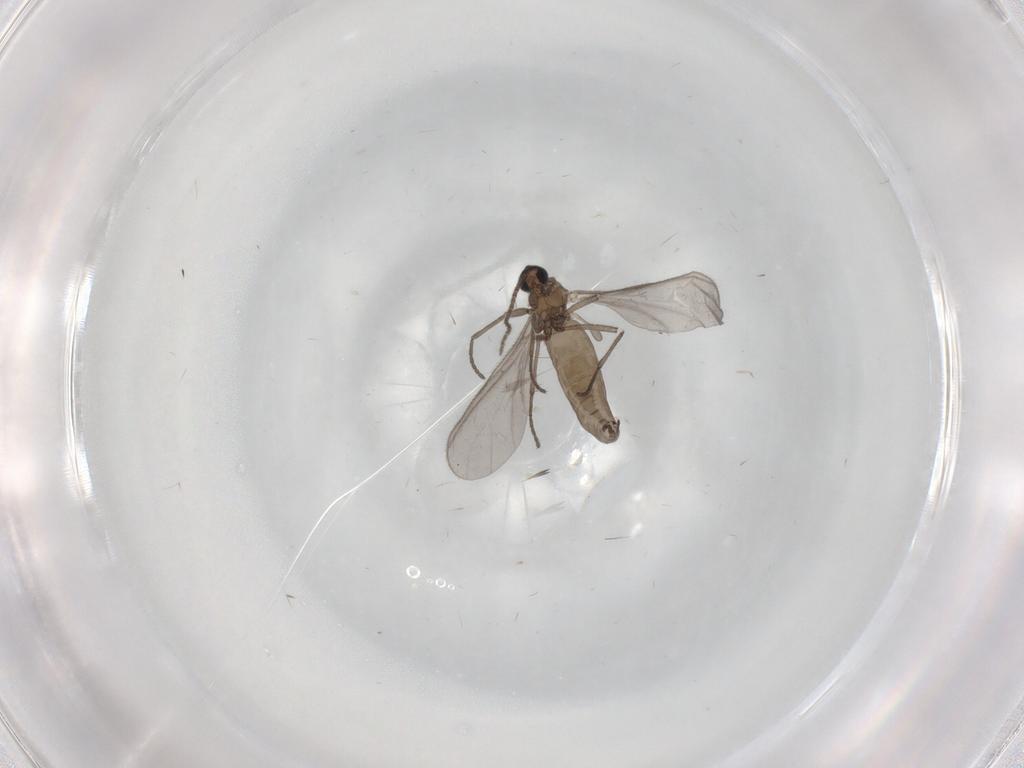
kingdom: Animalia
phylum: Arthropoda
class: Insecta
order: Diptera
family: Sciaridae
